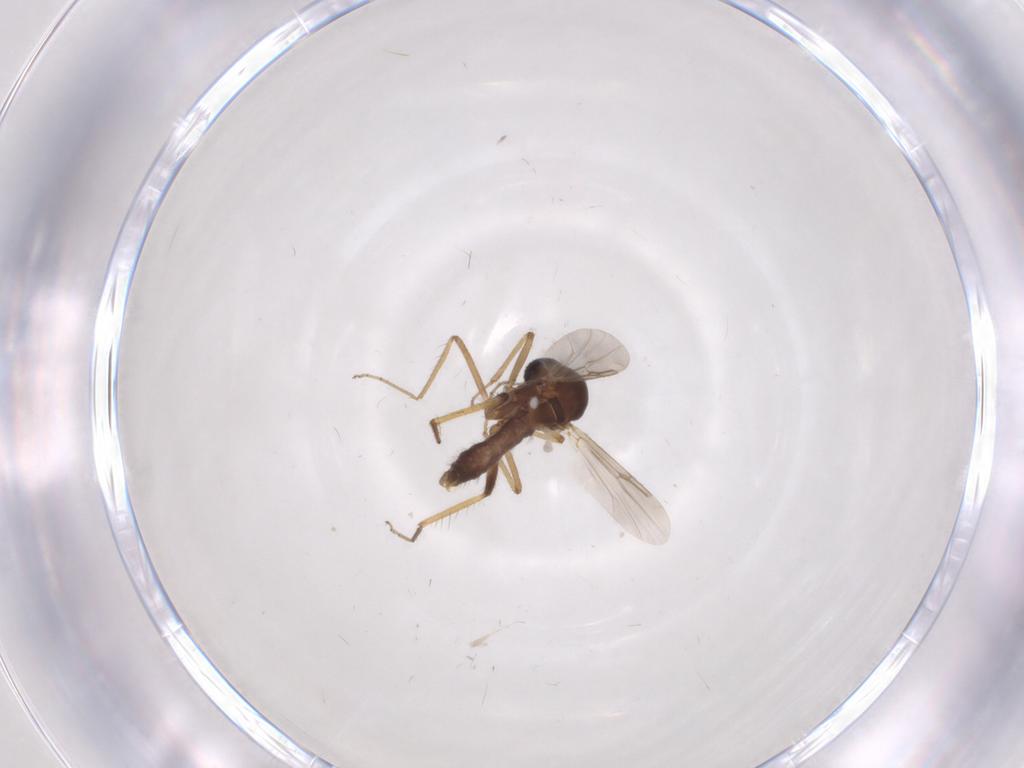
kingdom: Animalia
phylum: Arthropoda
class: Insecta
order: Diptera
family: Ceratopogonidae
